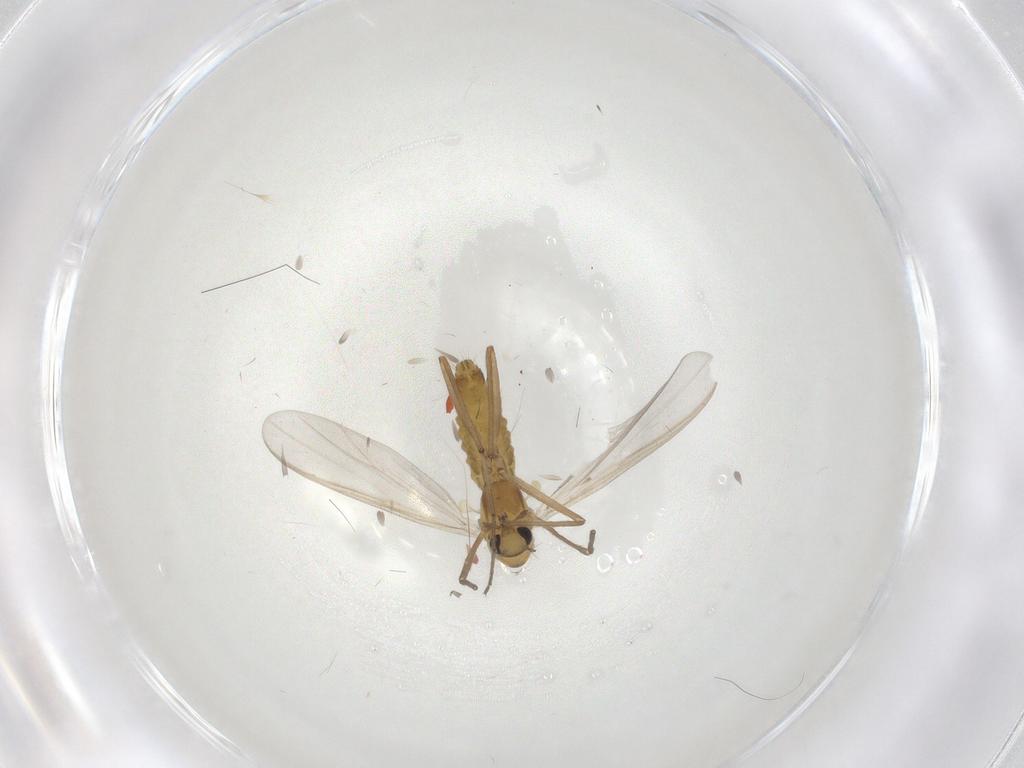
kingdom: Animalia
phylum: Arthropoda
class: Insecta
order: Diptera
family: Chironomidae
